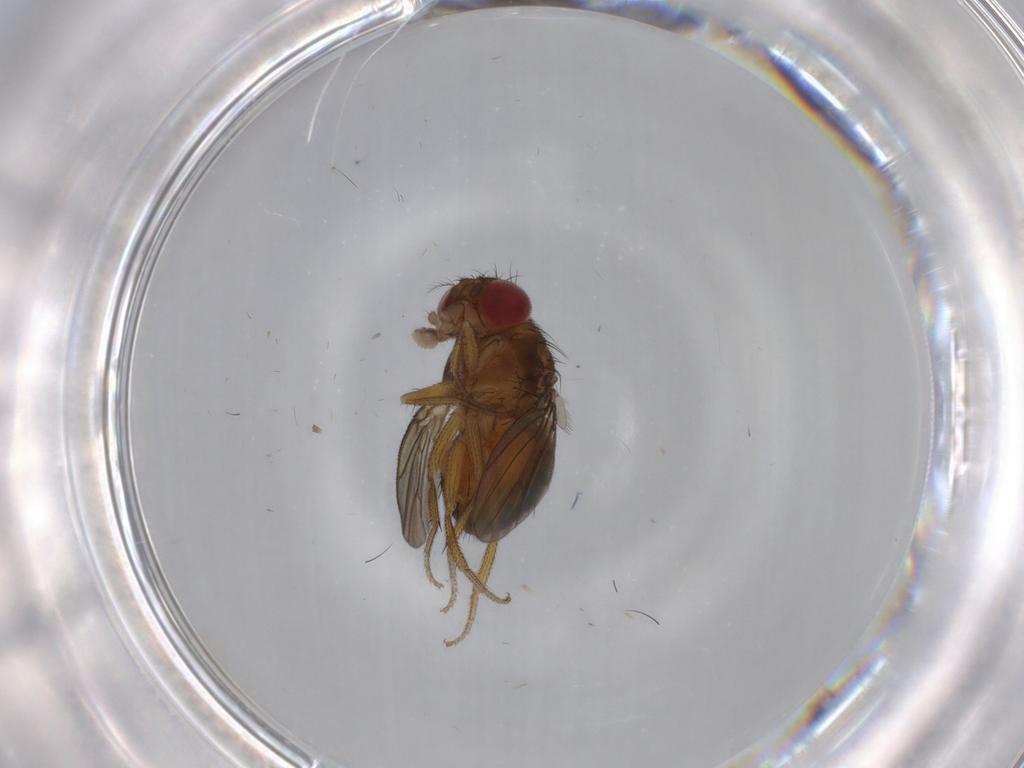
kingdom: Animalia
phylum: Arthropoda
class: Insecta
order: Diptera
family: Drosophilidae
